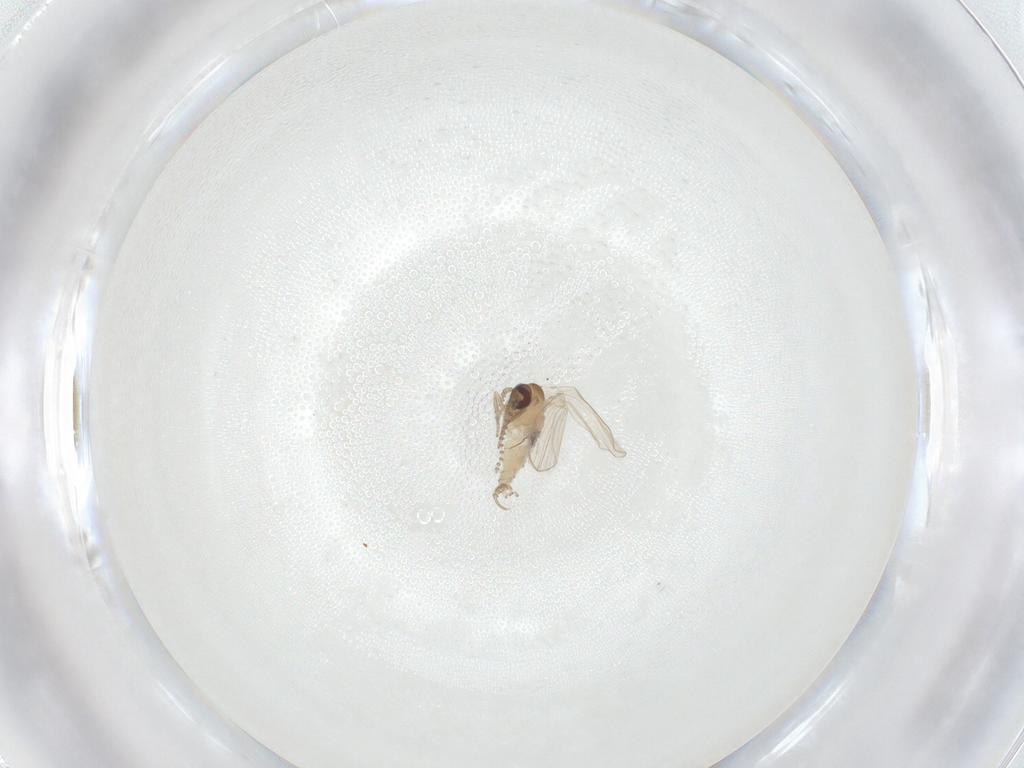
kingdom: Animalia
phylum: Arthropoda
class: Insecta
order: Diptera
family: Psychodidae
